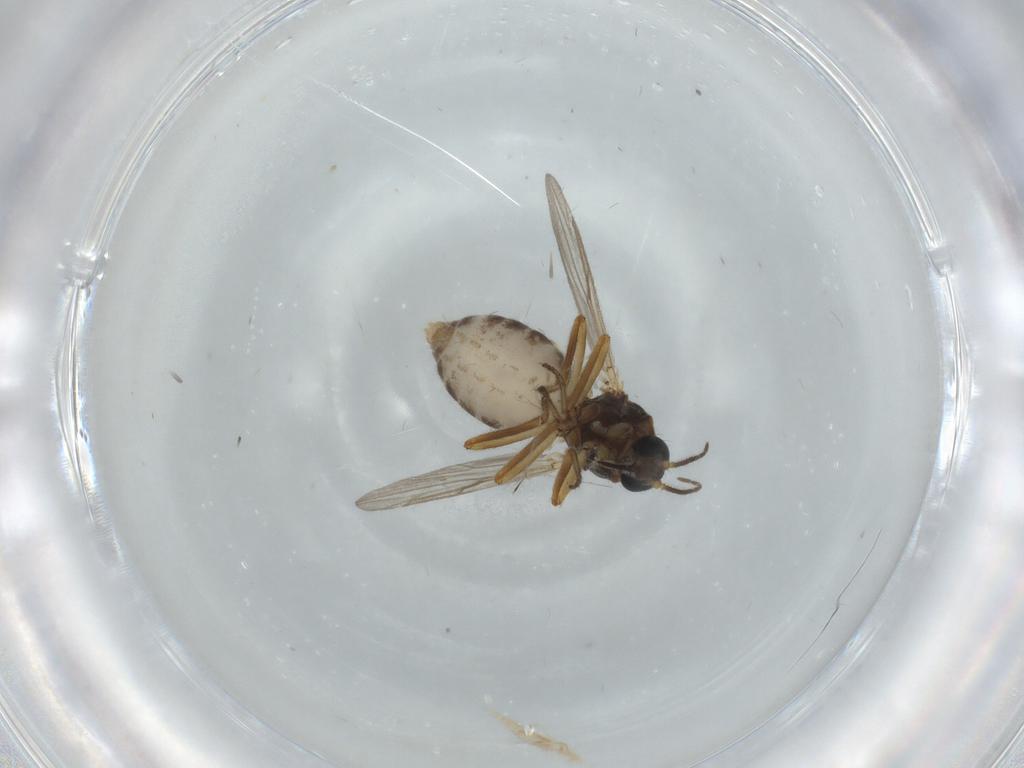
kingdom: Animalia
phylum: Arthropoda
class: Insecta
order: Diptera
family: Ceratopogonidae
